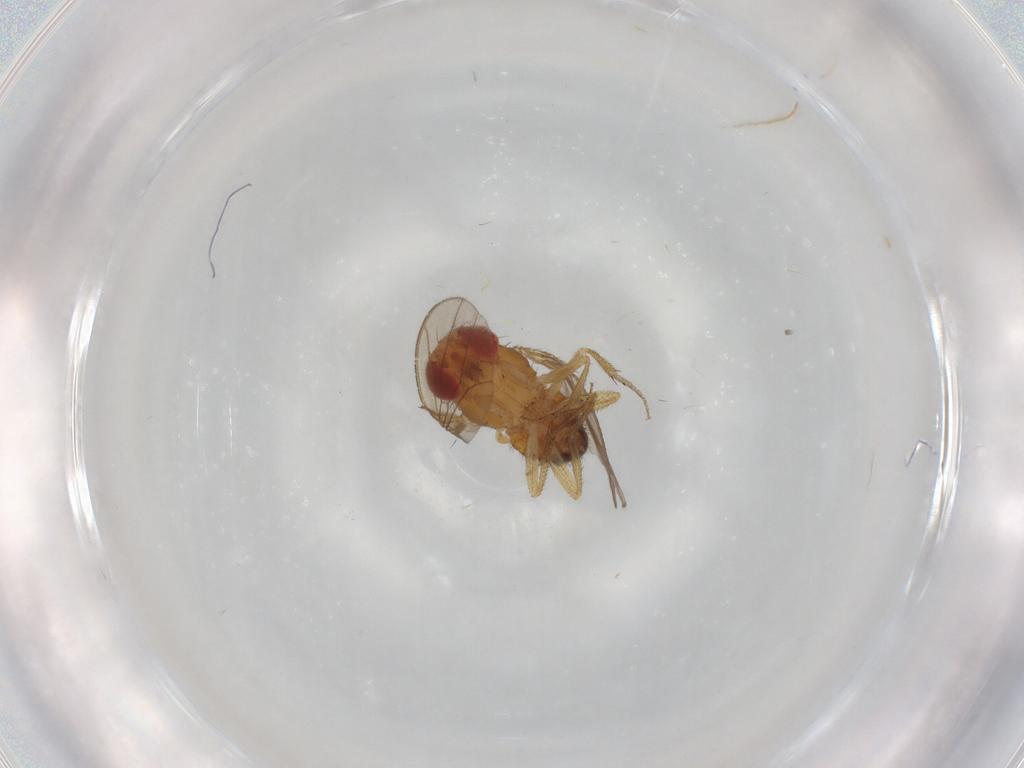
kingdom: Animalia
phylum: Arthropoda
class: Insecta
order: Diptera
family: Drosophilidae
